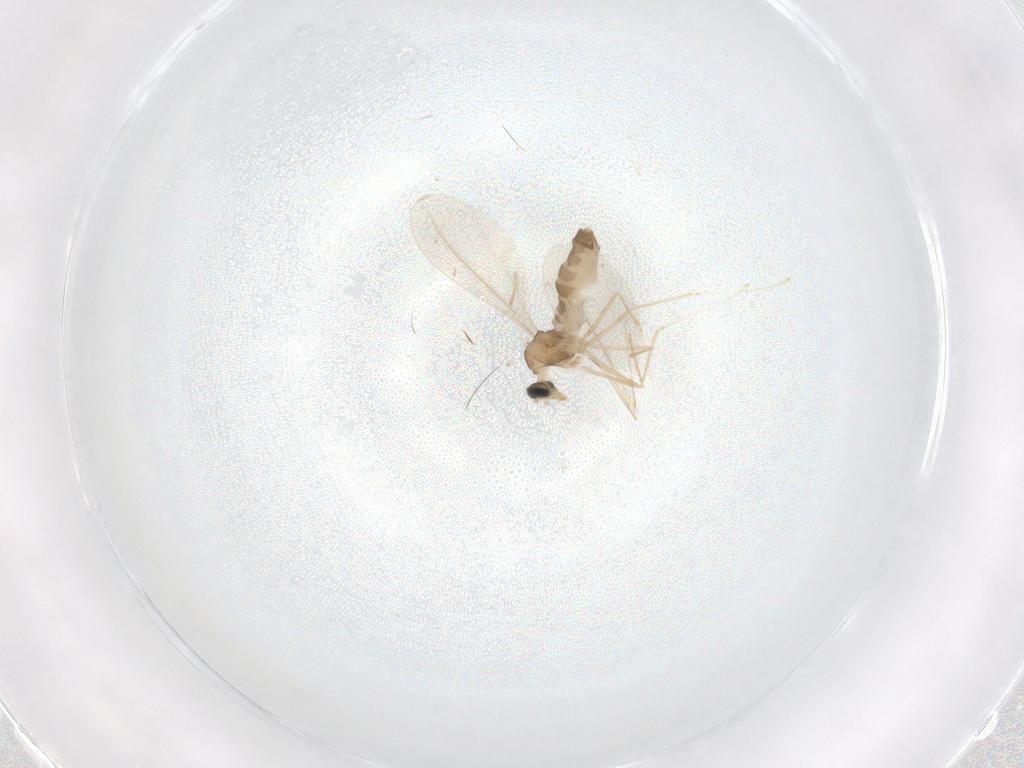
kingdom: Animalia
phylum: Arthropoda
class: Insecta
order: Diptera
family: Cecidomyiidae
